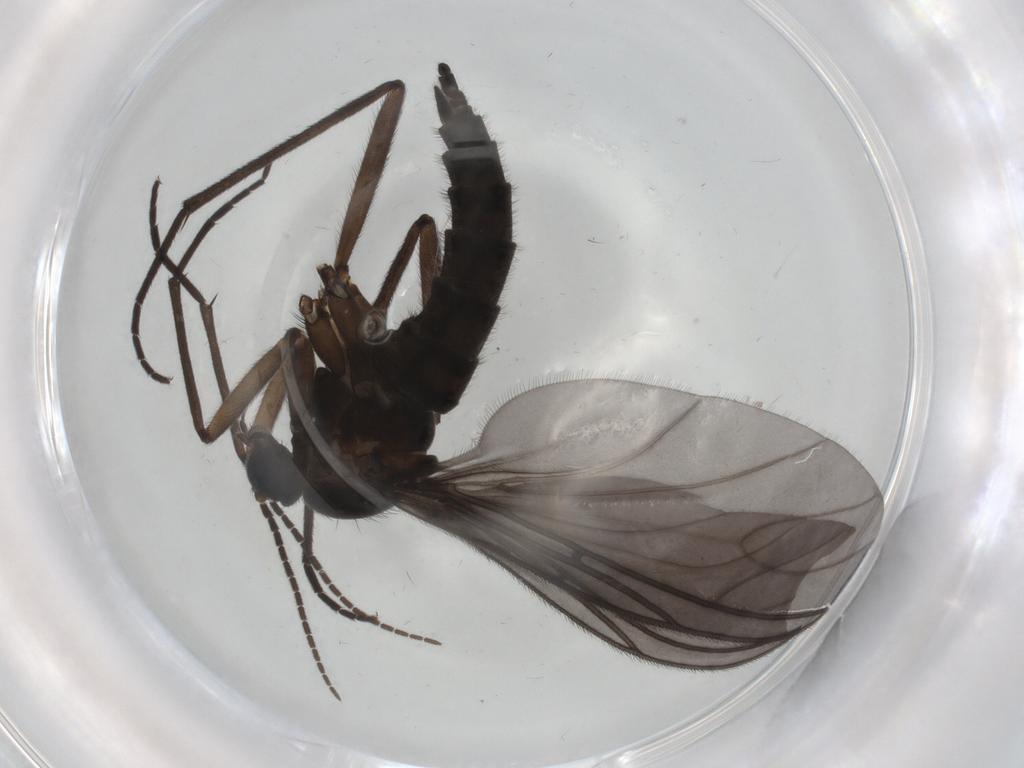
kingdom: Animalia
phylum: Arthropoda
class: Insecta
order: Diptera
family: Sciaridae
